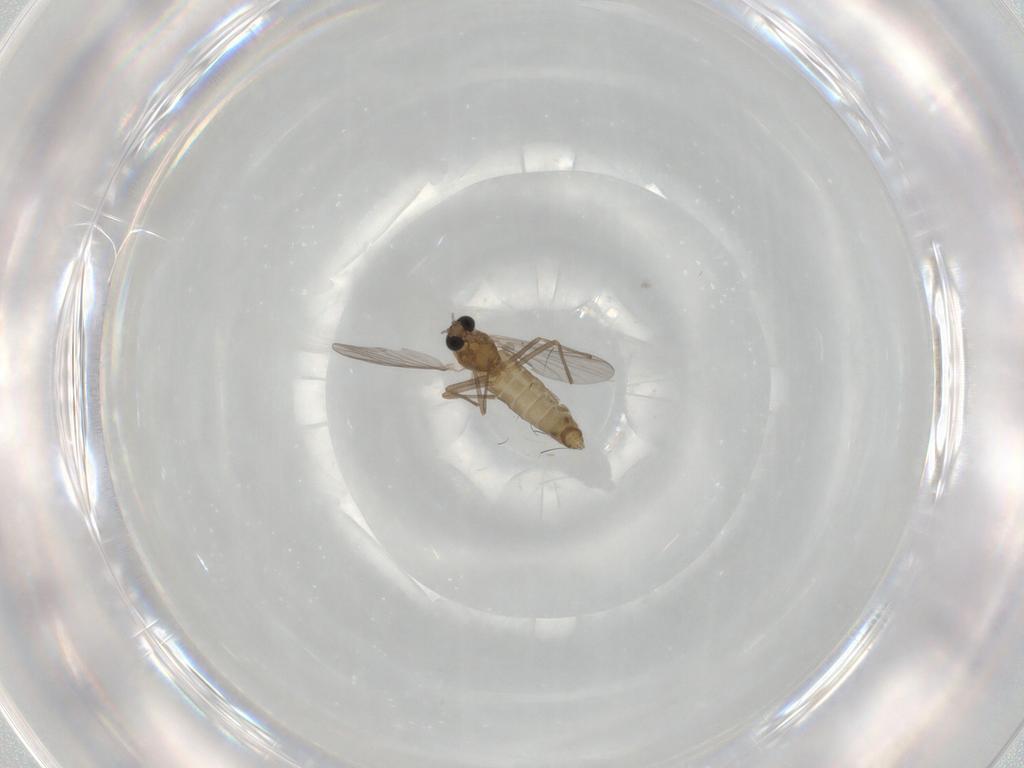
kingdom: Animalia
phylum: Arthropoda
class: Insecta
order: Diptera
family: Chironomidae
